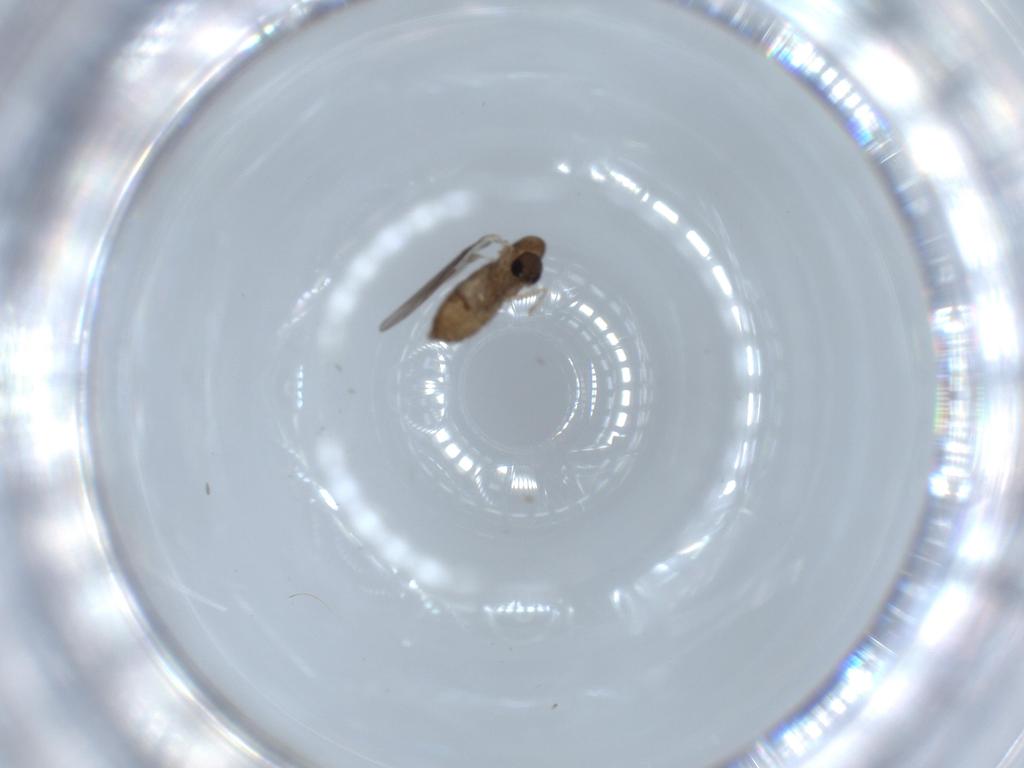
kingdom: Animalia
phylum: Arthropoda
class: Insecta
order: Diptera
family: Psychodidae
